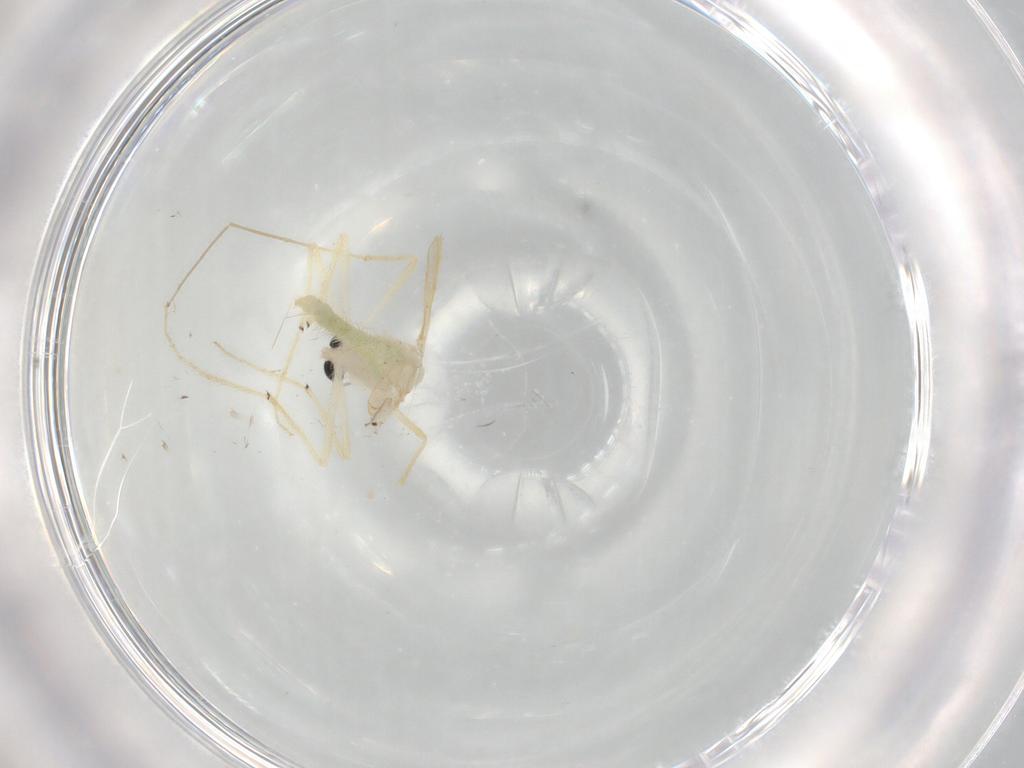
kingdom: Animalia
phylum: Arthropoda
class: Insecta
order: Diptera
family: Chironomidae
